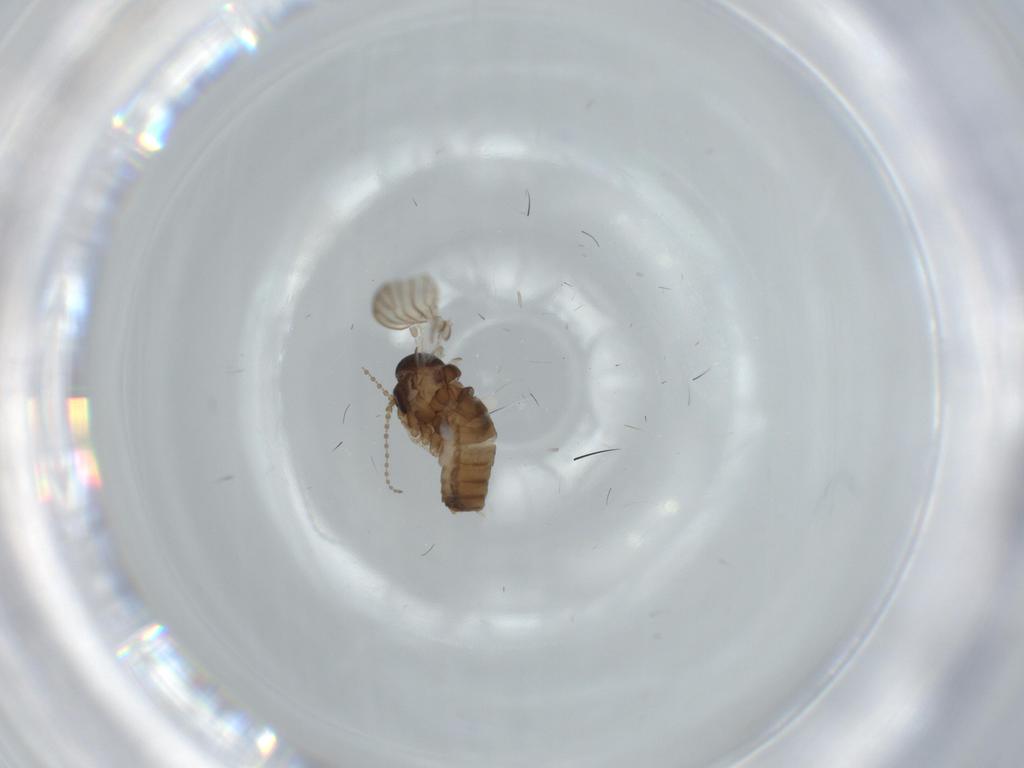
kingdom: Animalia
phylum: Arthropoda
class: Insecta
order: Diptera
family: Psychodidae
